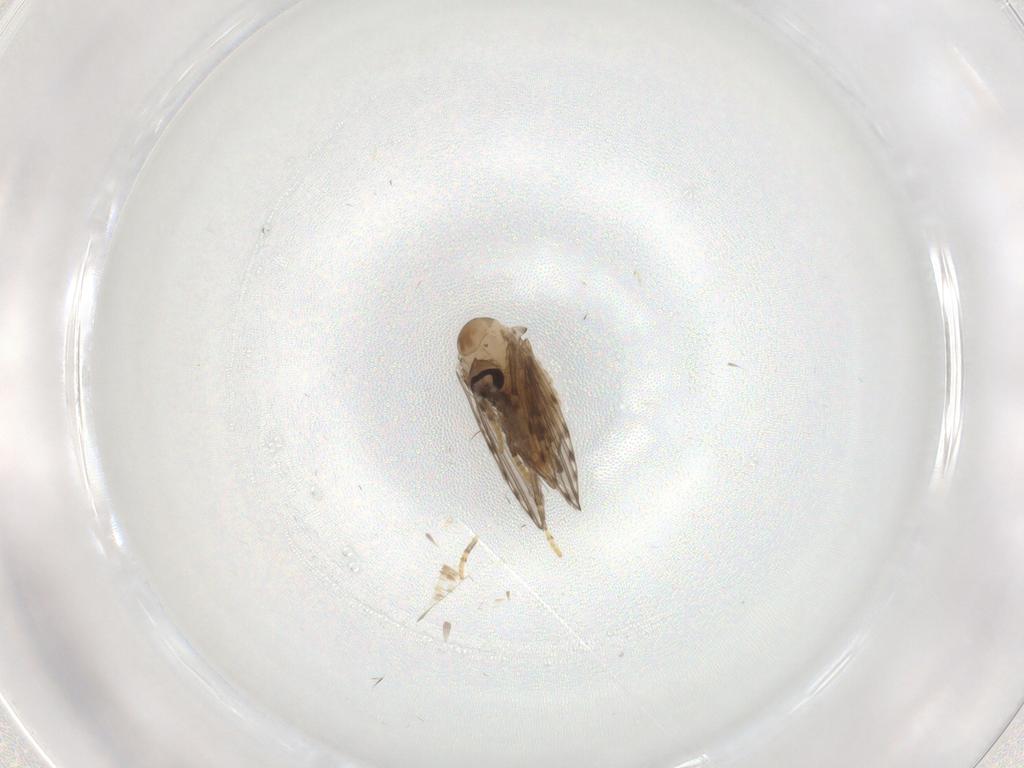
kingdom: Animalia
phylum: Arthropoda
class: Insecta
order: Diptera
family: Psychodidae
